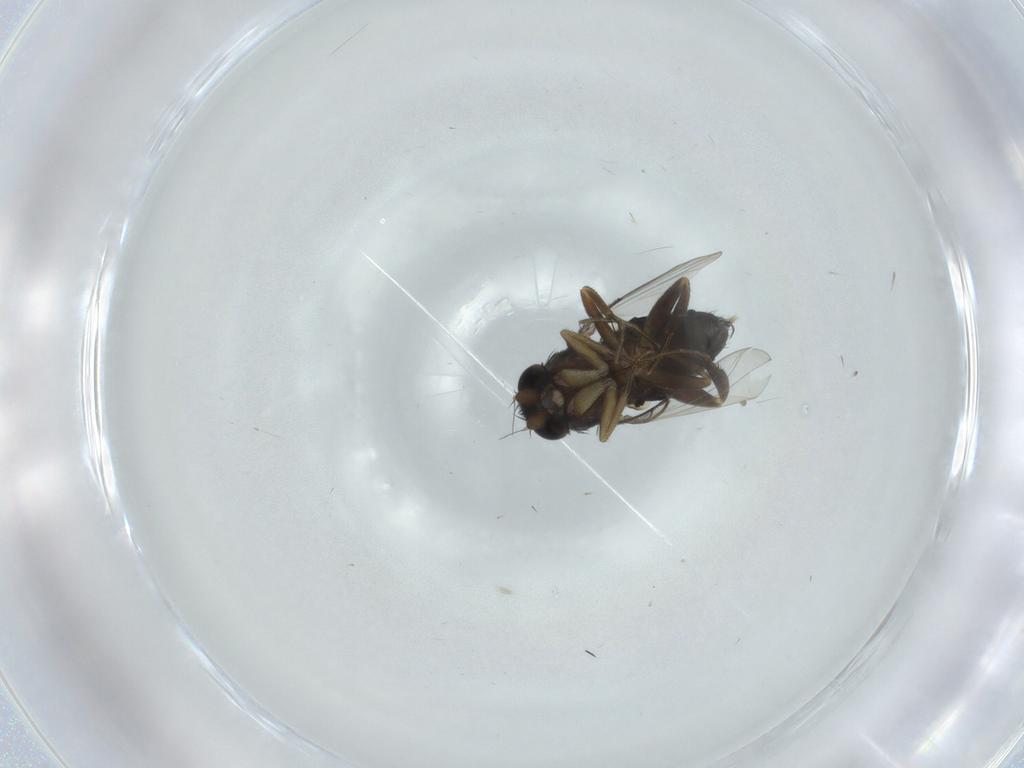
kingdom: Animalia
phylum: Arthropoda
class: Insecta
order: Diptera
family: Phoridae
